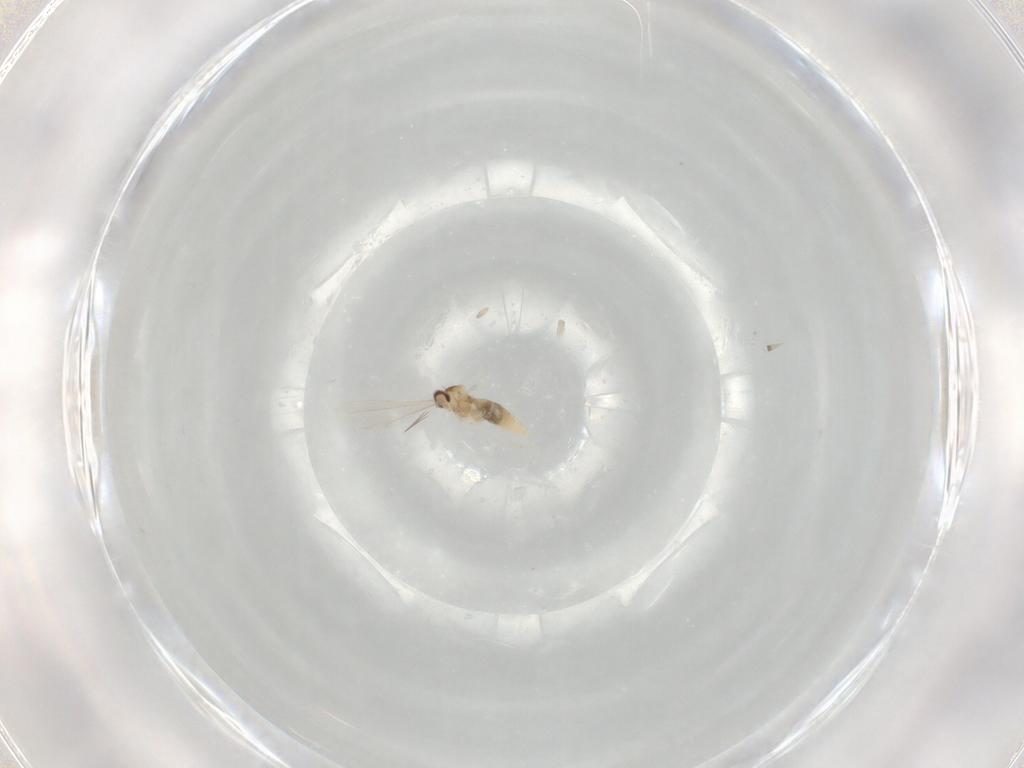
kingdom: Animalia
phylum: Arthropoda
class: Insecta
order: Diptera
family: Cecidomyiidae
